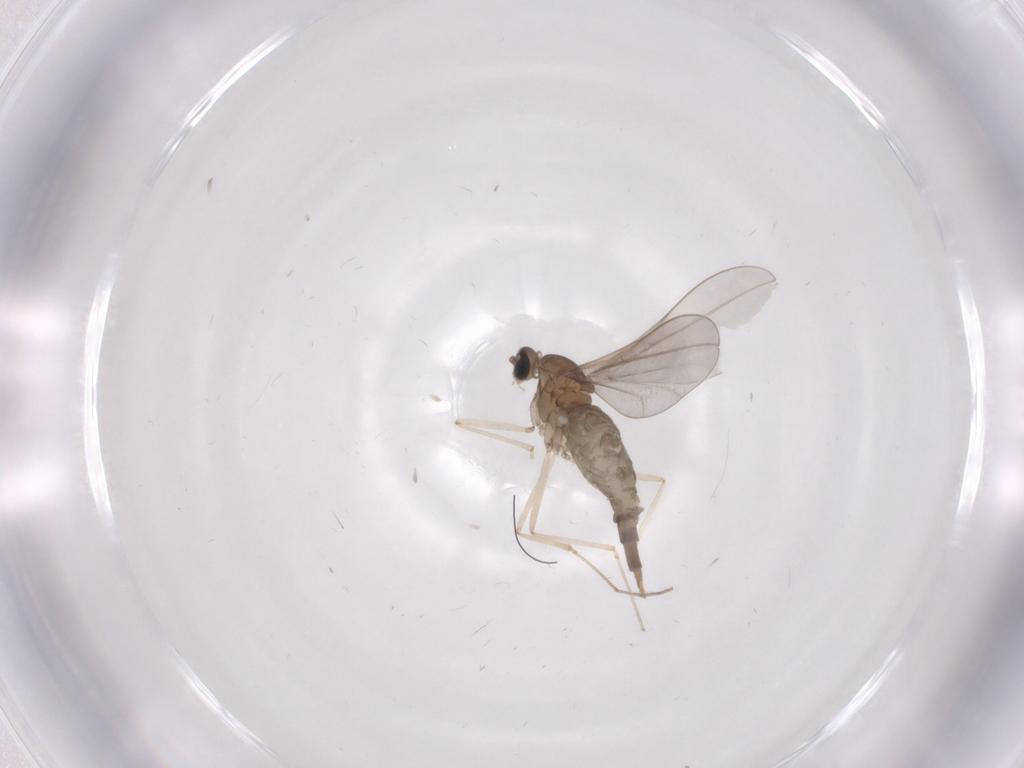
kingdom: Animalia
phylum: Arthropoda
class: Insecta
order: Diptera
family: Cecidomyiidae
